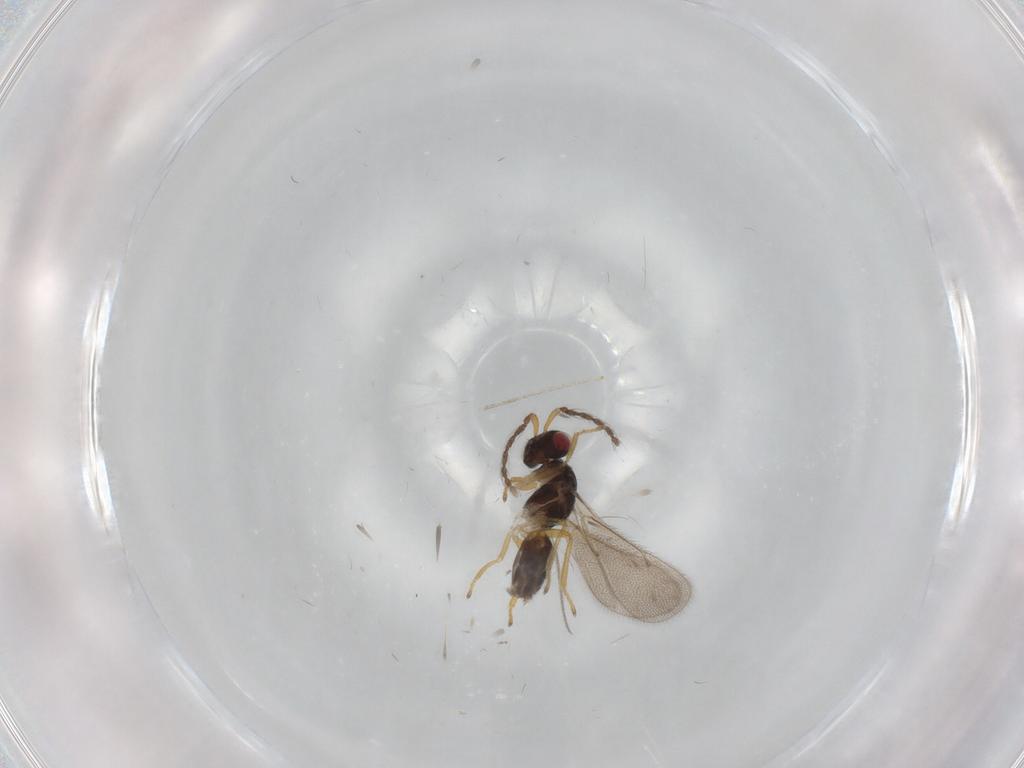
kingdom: Animalia
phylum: Arthropoda
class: Insecta
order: Hymenoptera
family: Eulophidae
